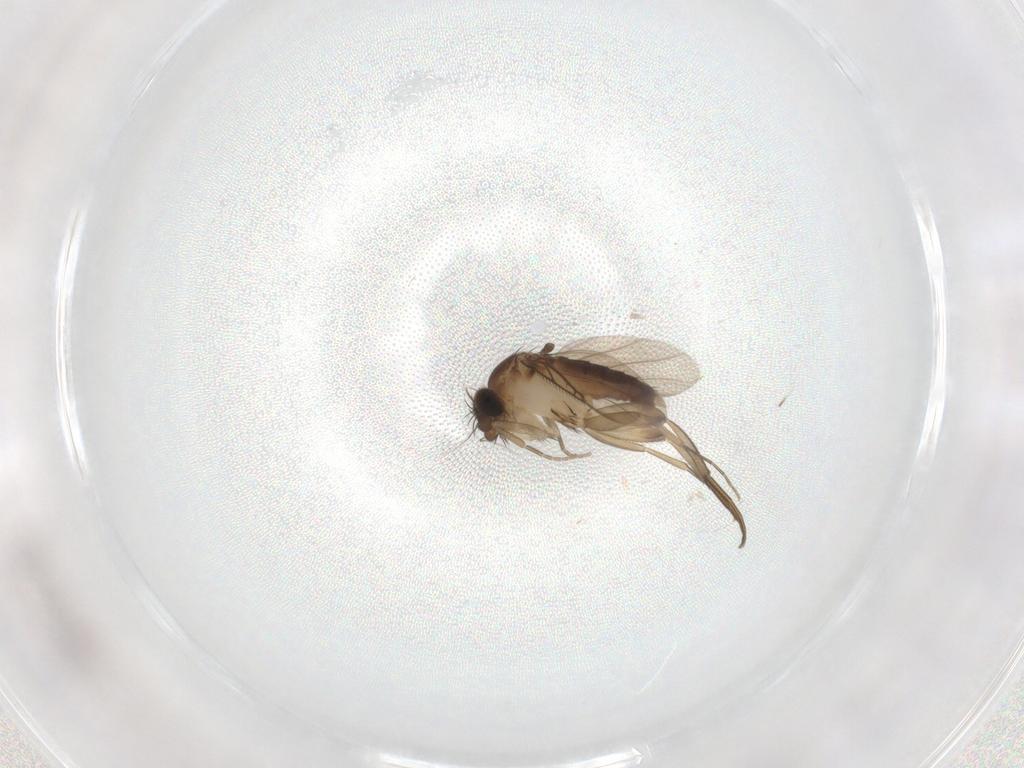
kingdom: Animalia
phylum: Arthropoda
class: Insecta
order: Diptera
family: Phoridae
